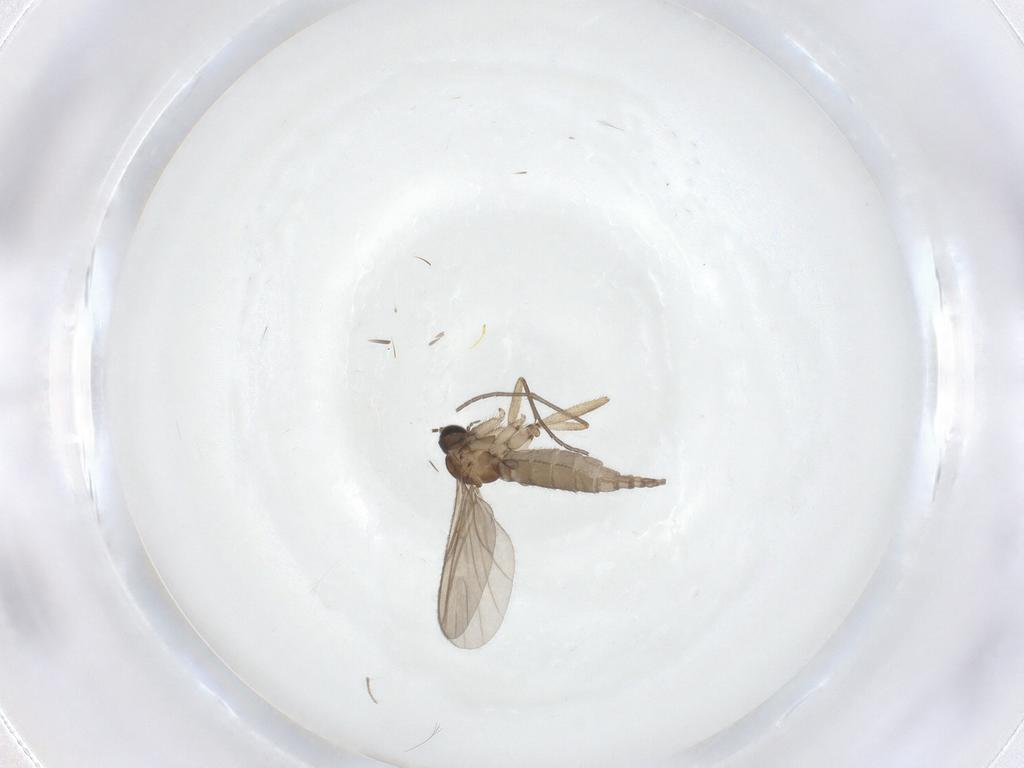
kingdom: Animalia
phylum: Arthropoda
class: Insecta
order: Diptera
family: Sciaridae
